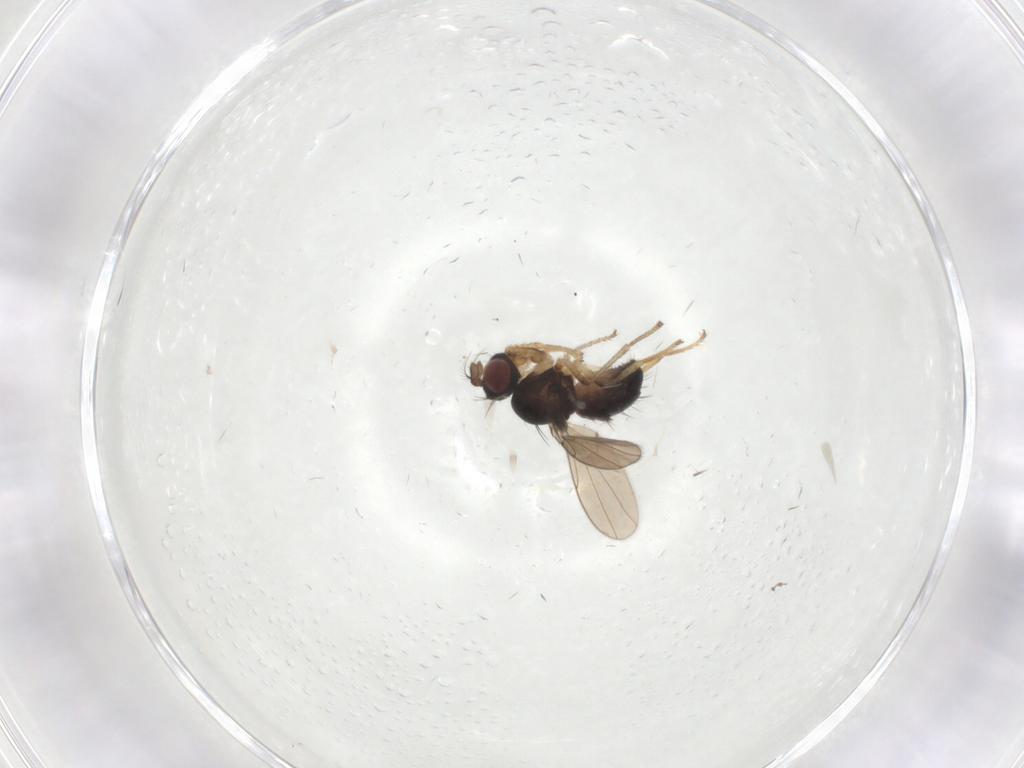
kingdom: Animalia
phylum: Arthropoda
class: Insecta
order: Diptera
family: Ephydridae
